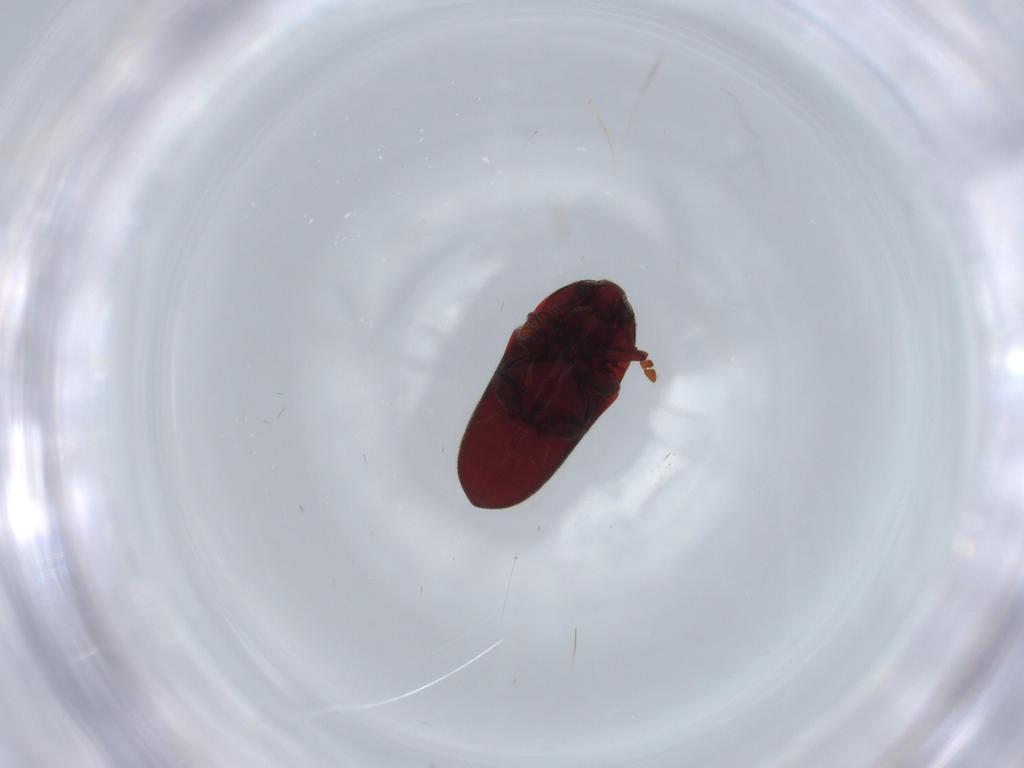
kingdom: Animalia
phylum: Arthropoda
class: Insecta
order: Coleoptera
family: Throscidae
